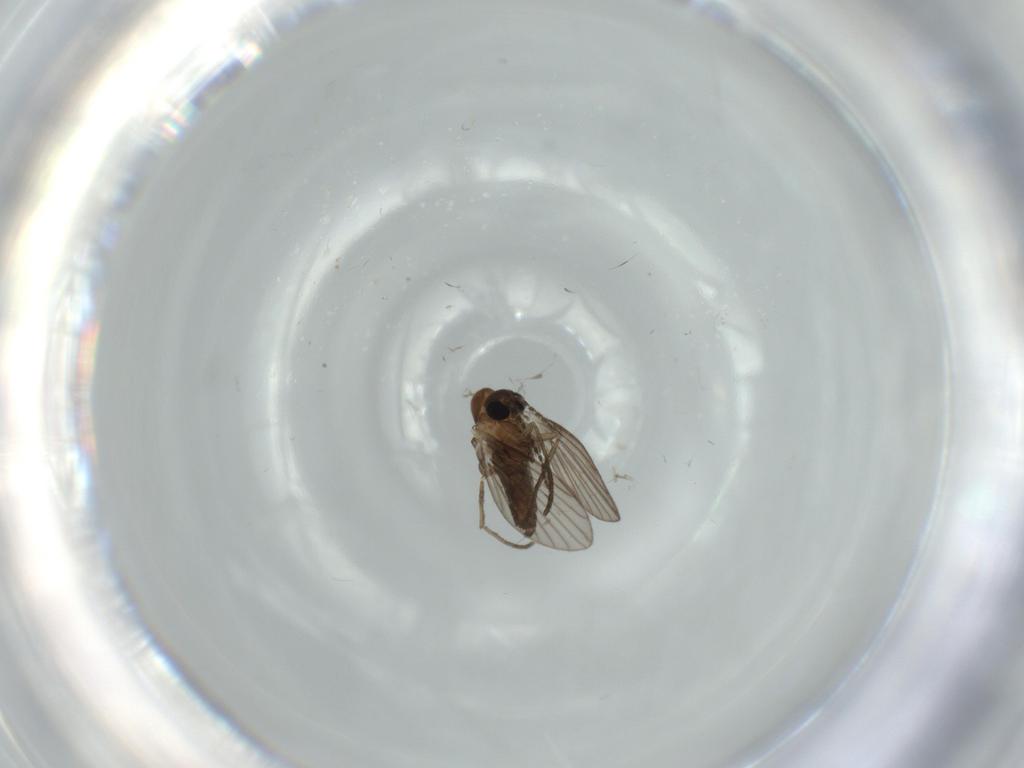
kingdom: Animalia
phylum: Arthropoda
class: Insecta
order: Diptera
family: Psychodidae
